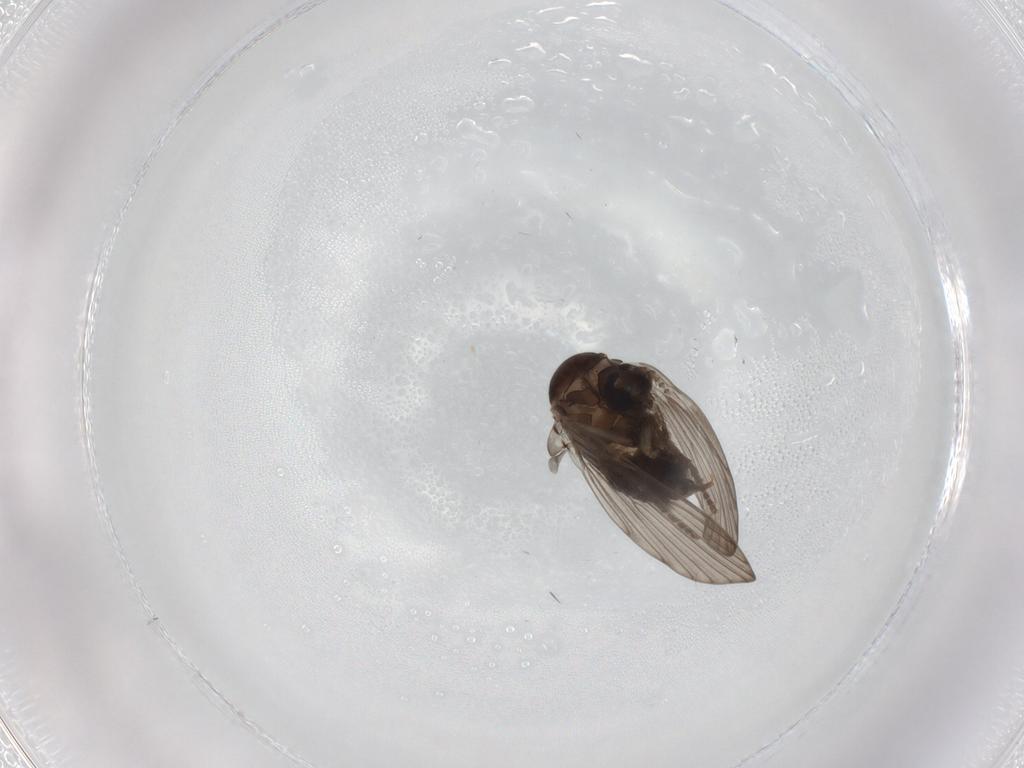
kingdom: Animalia
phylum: Arthropoda
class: Insecta
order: Diptera
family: Psychodidae
